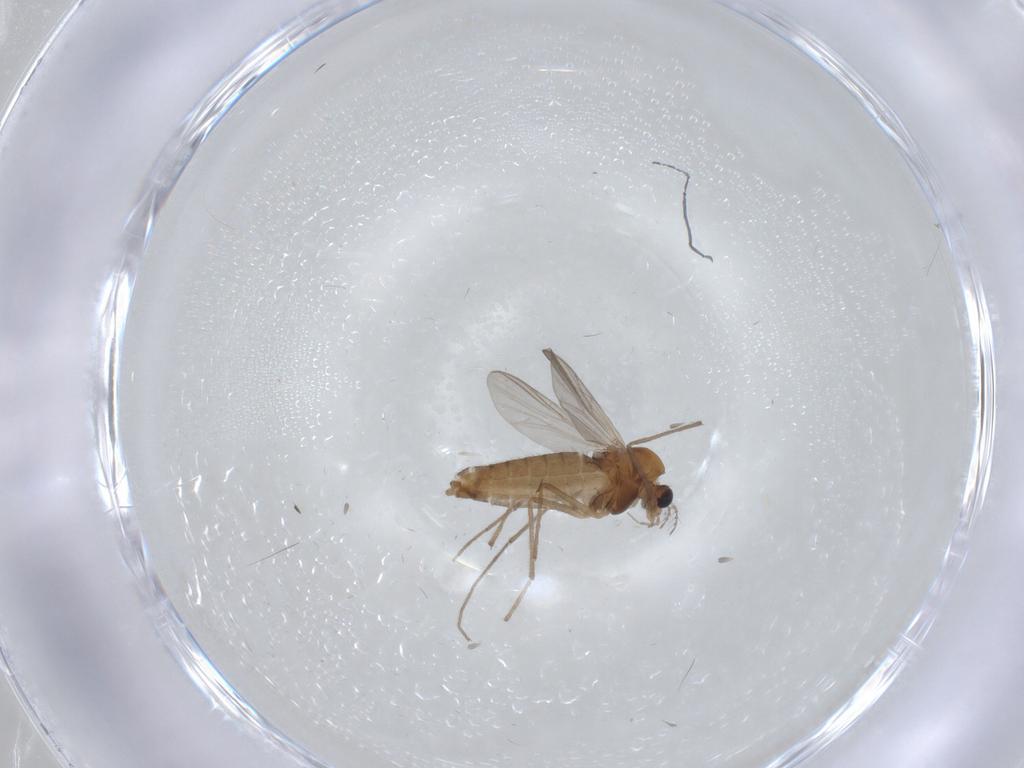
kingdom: Animalia
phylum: Arthropoda
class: Insecta
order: Diptera
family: Chironomidae
